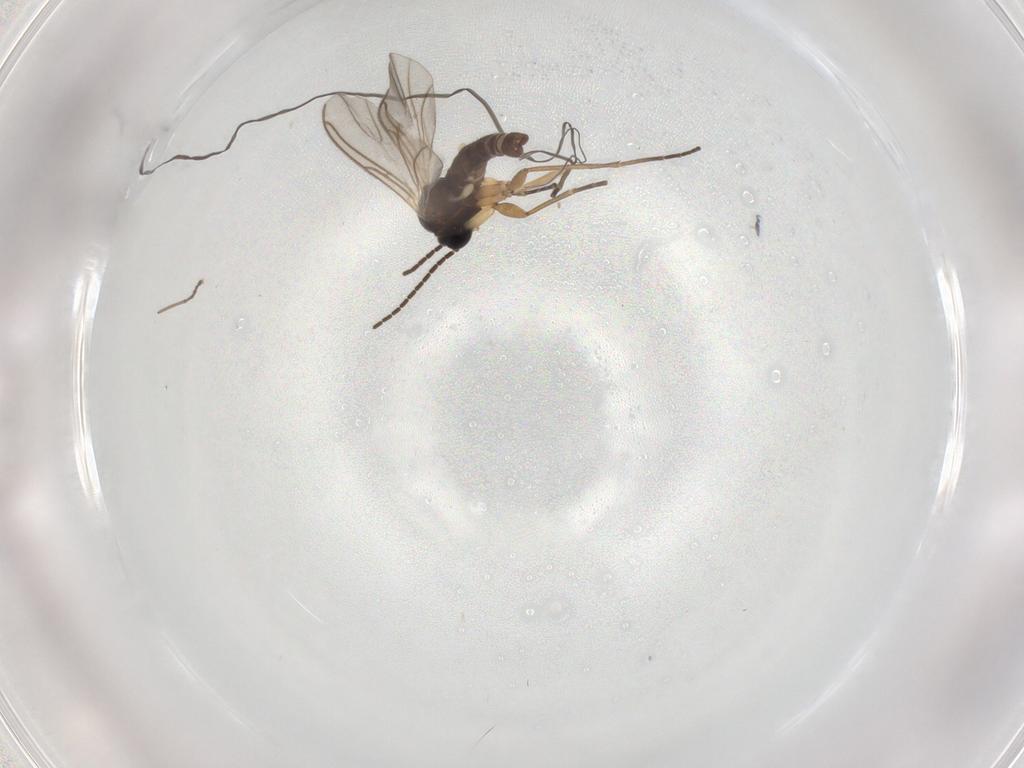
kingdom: Animalia
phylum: Arthropoda
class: Insecta
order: Diptera
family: Sciaridae
